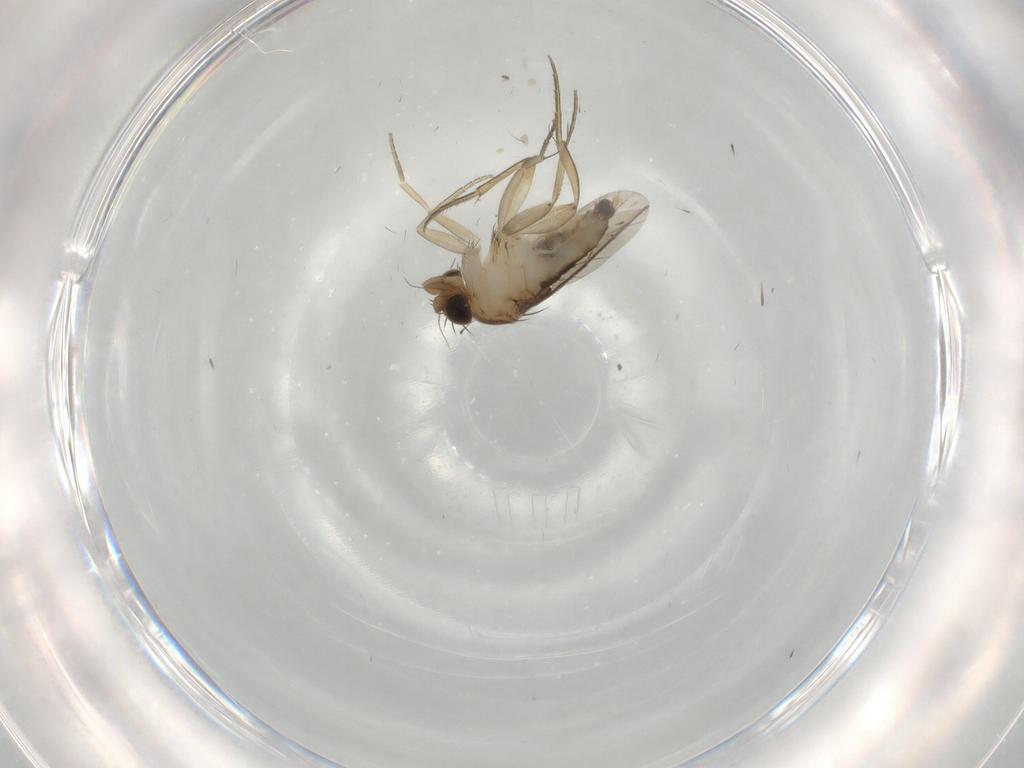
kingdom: Animalia
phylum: Arthropoda
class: Insecta
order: Diptera
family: Phoridae
